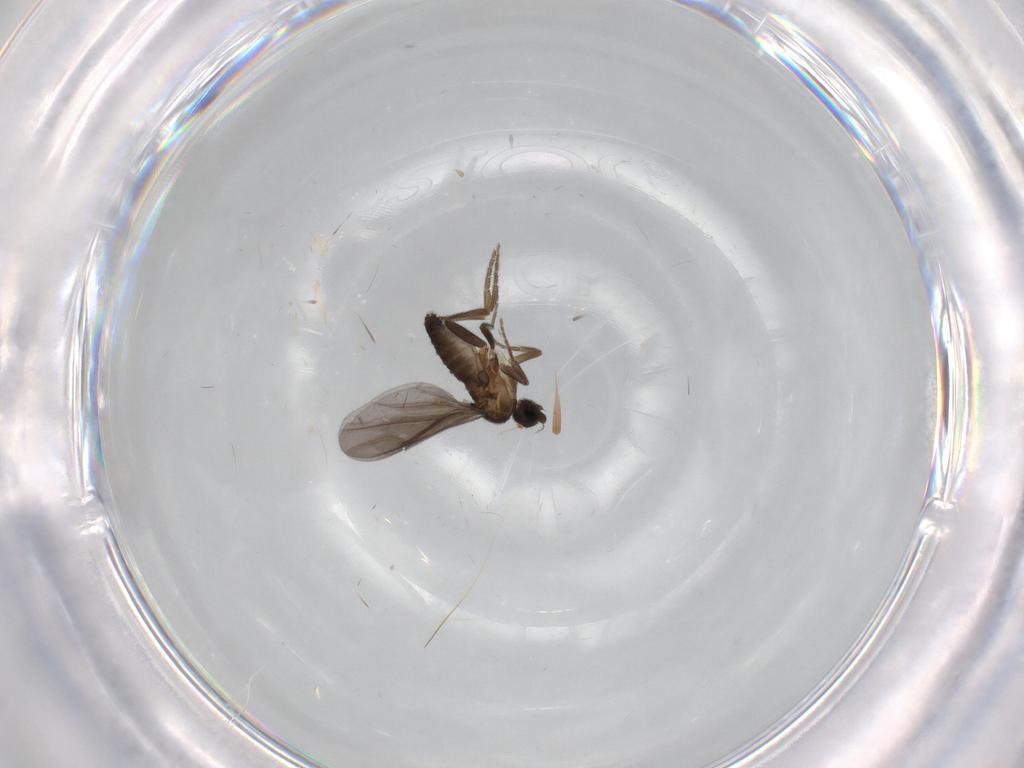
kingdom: Animalia
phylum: Arthropoda
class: Insecta
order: Diptera
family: Phoridae
